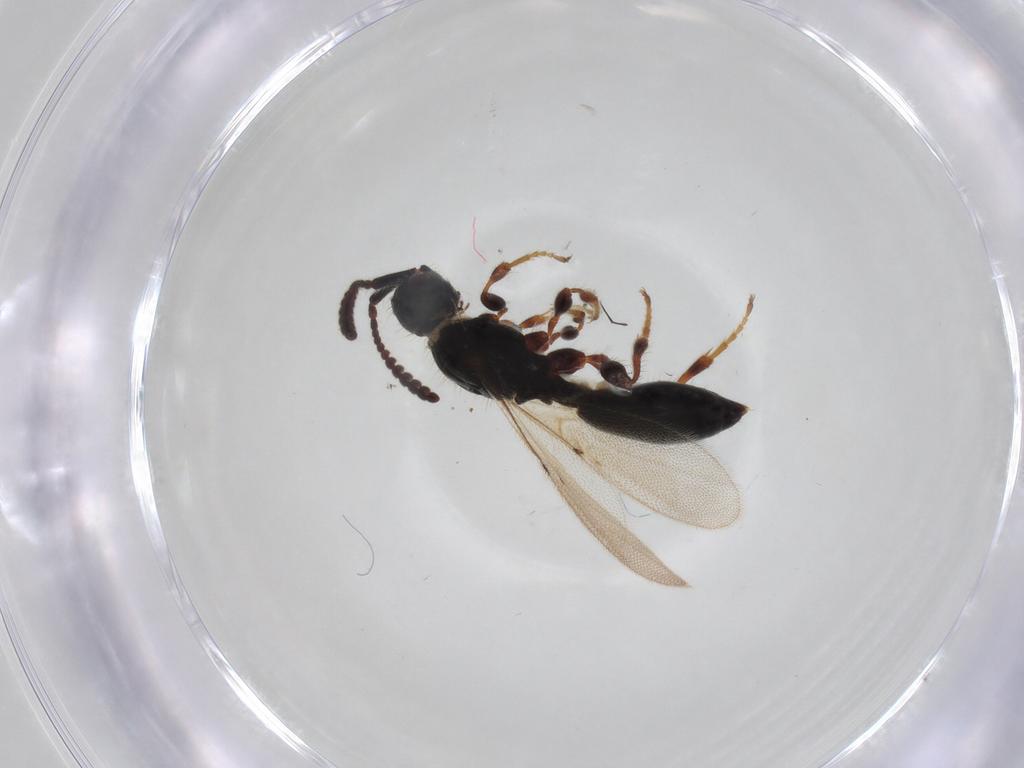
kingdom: Animalia
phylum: Arthropoda
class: Insecta
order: Hymenoptera
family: Diapriidae
